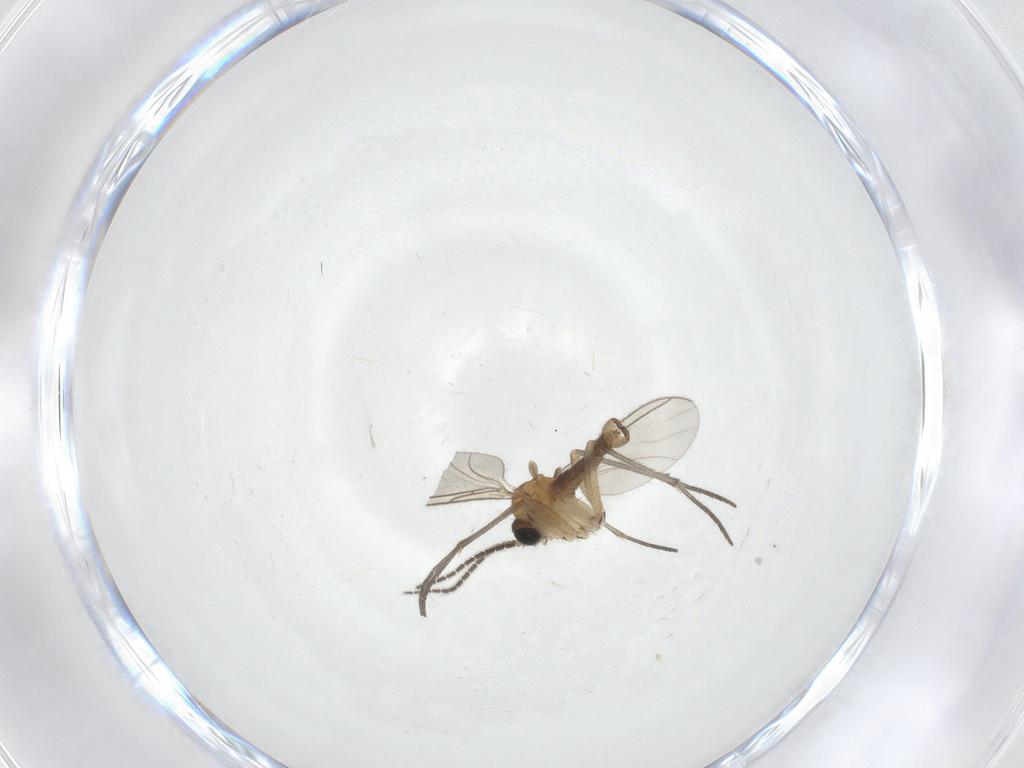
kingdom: Animalia
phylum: Arthropoda
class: Insecta
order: Diptera
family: Sciaridae
